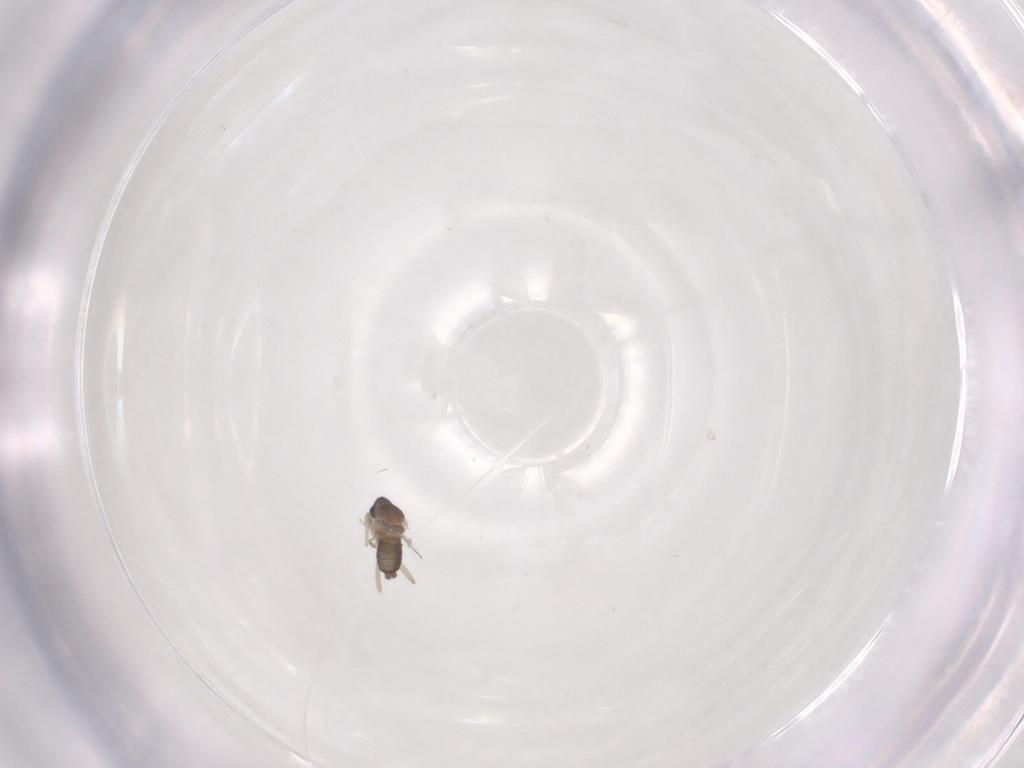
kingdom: Animalia
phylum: Arthropoda
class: Insecta
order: Diptera
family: Cecidomyiidae
